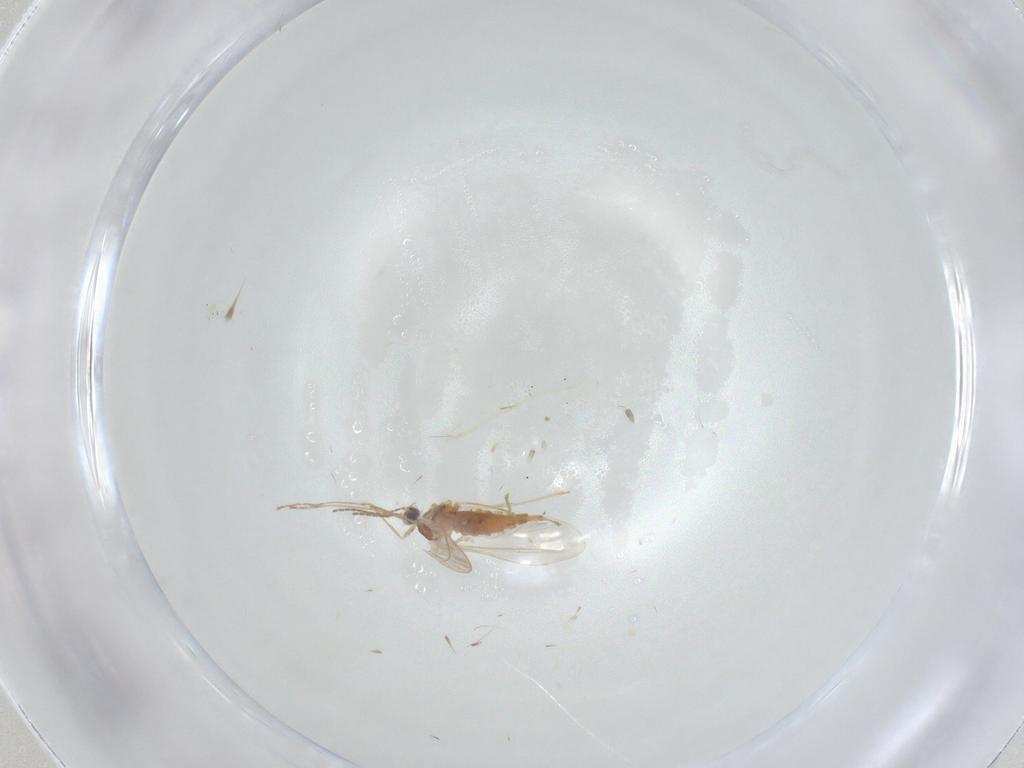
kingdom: Animalia
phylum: Arthropoda
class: Insecta
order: Diptera
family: Cecidomyiidae
